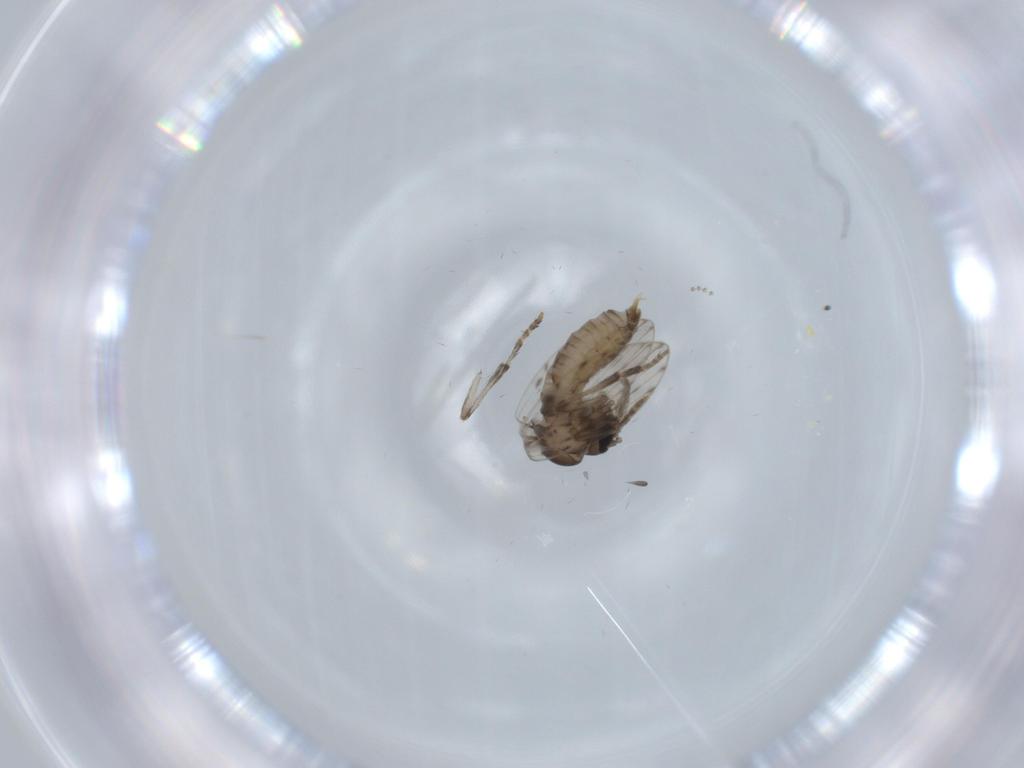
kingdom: Animalia
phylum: Arthropoda
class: Insecta
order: Diptera
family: Psychodidae
